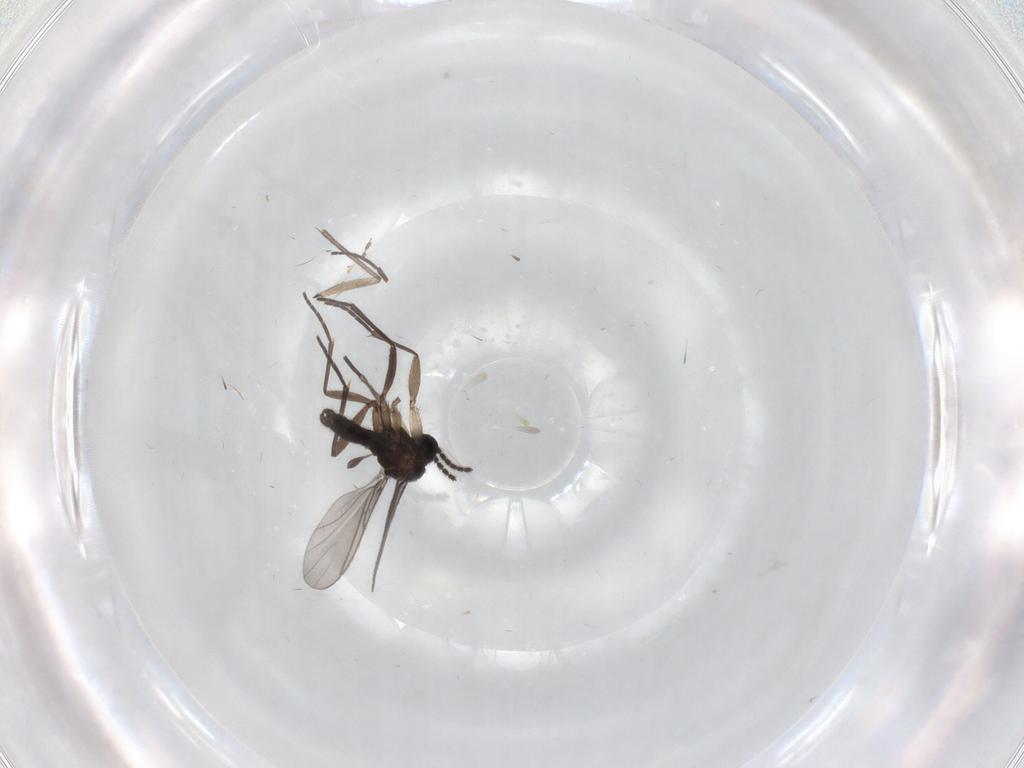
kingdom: Animalia
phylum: Arthropoda
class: Insecta
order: Diptera
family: Sciaridae
